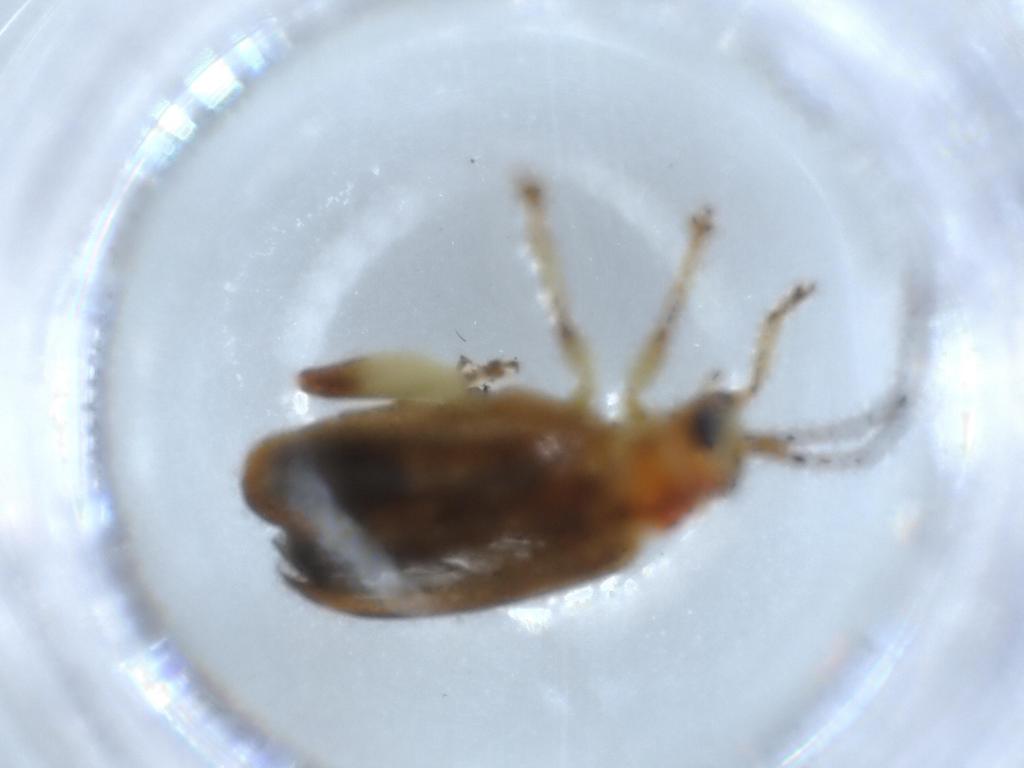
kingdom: Animalia
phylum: Arthropoda
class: Insecta
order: Coleoptera
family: Chrysomelidae
